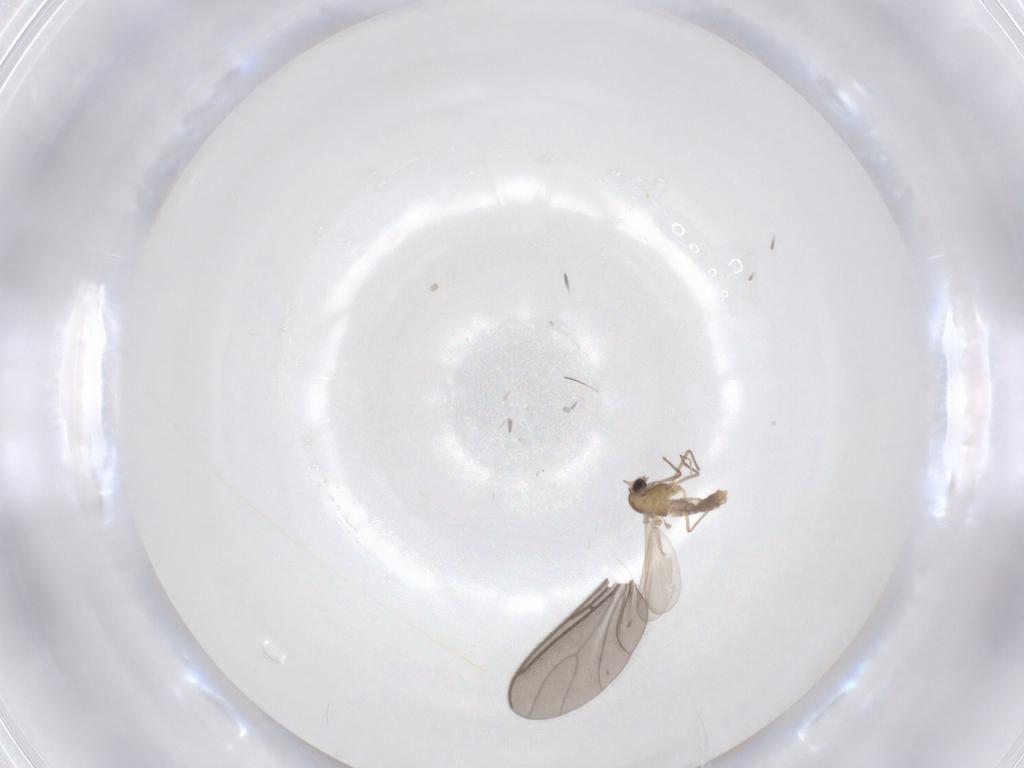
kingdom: Animalia
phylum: Arthropoda
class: Insecta
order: Diptera
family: Chironomidae
